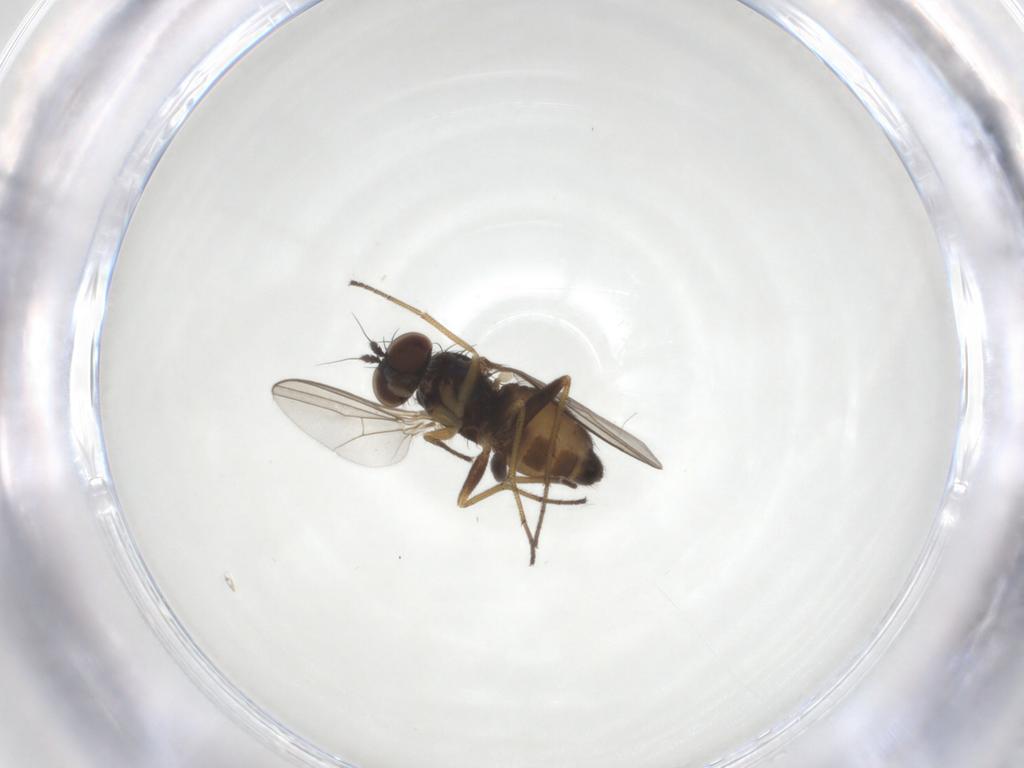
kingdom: Animalia
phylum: Arthropoda
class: Insecta
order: Diptera
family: Dolichopodidae
